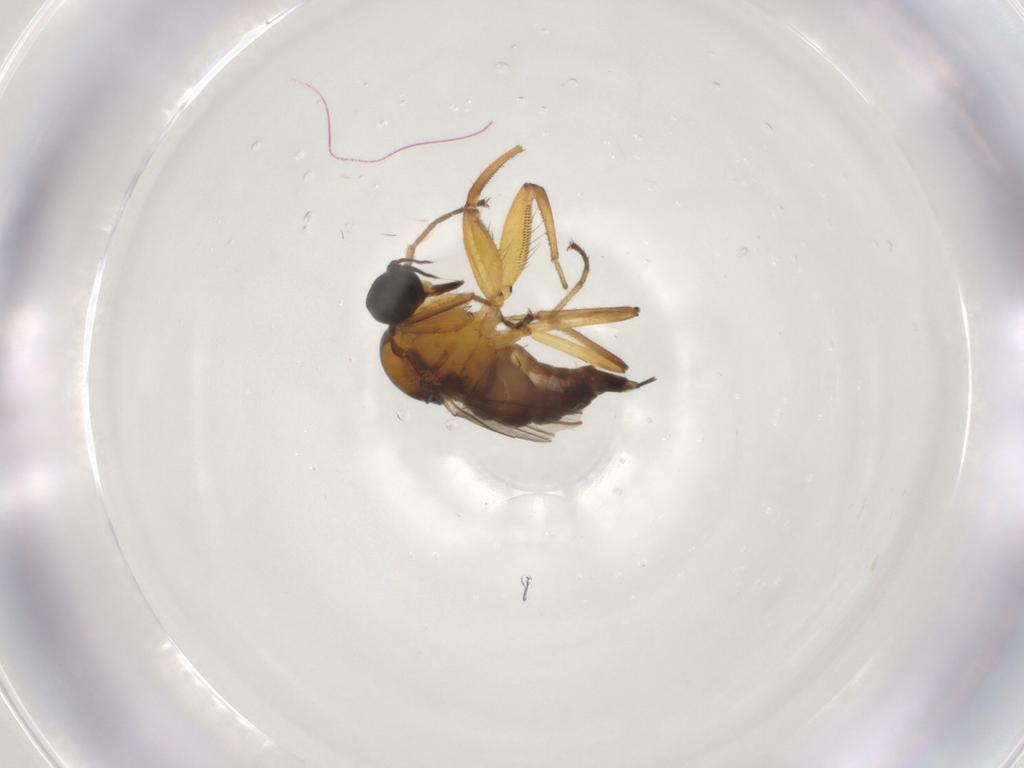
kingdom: Animalia
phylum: Arthropoda
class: Insecta
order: Diptera
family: Hybotidae
